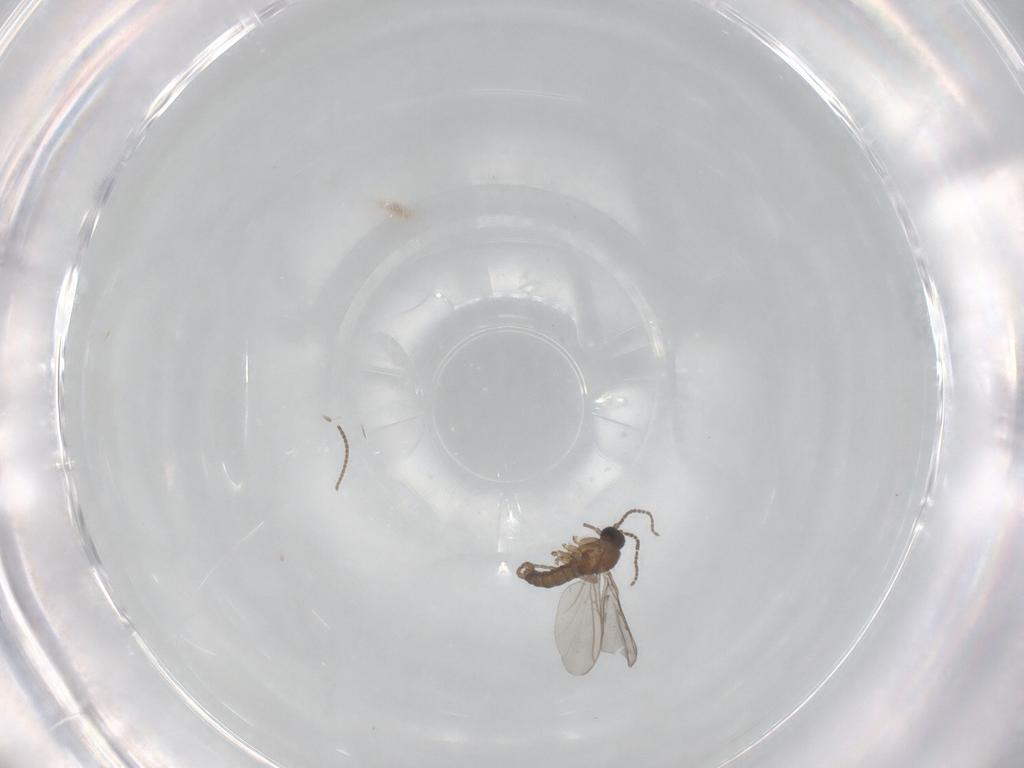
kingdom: Animalia
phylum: Arthropoda
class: Insecta
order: Diptera
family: Sciaridae
